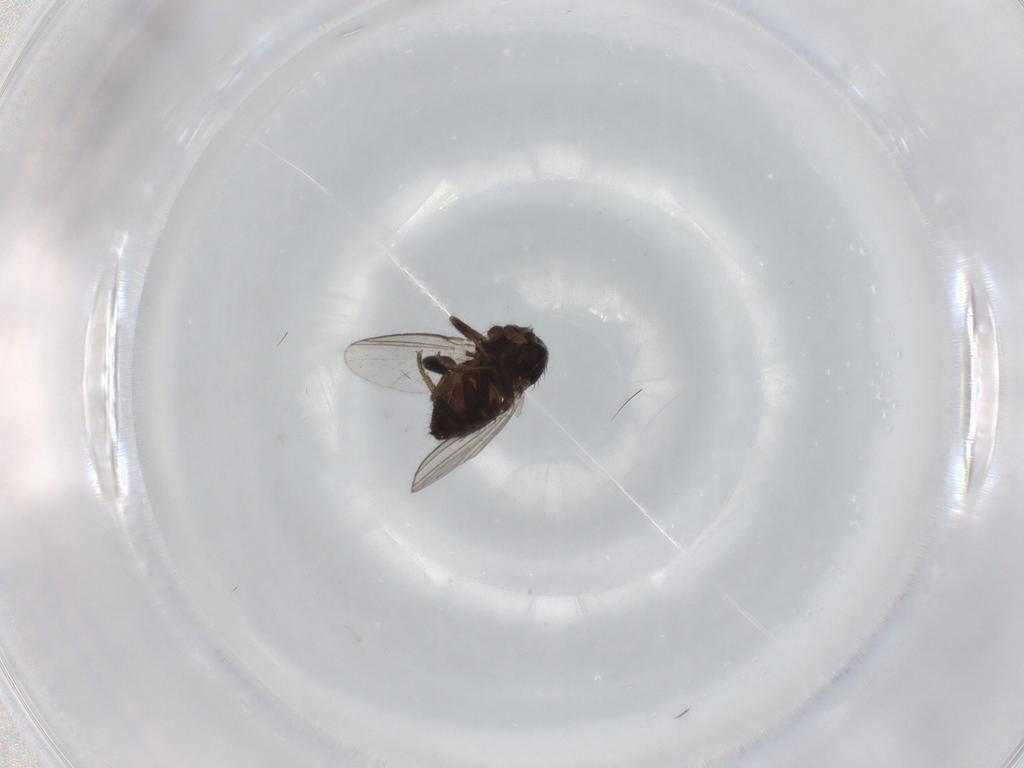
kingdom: Animalia
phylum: Arthropoda
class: Insecta
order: Diptera
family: Milichiidae
